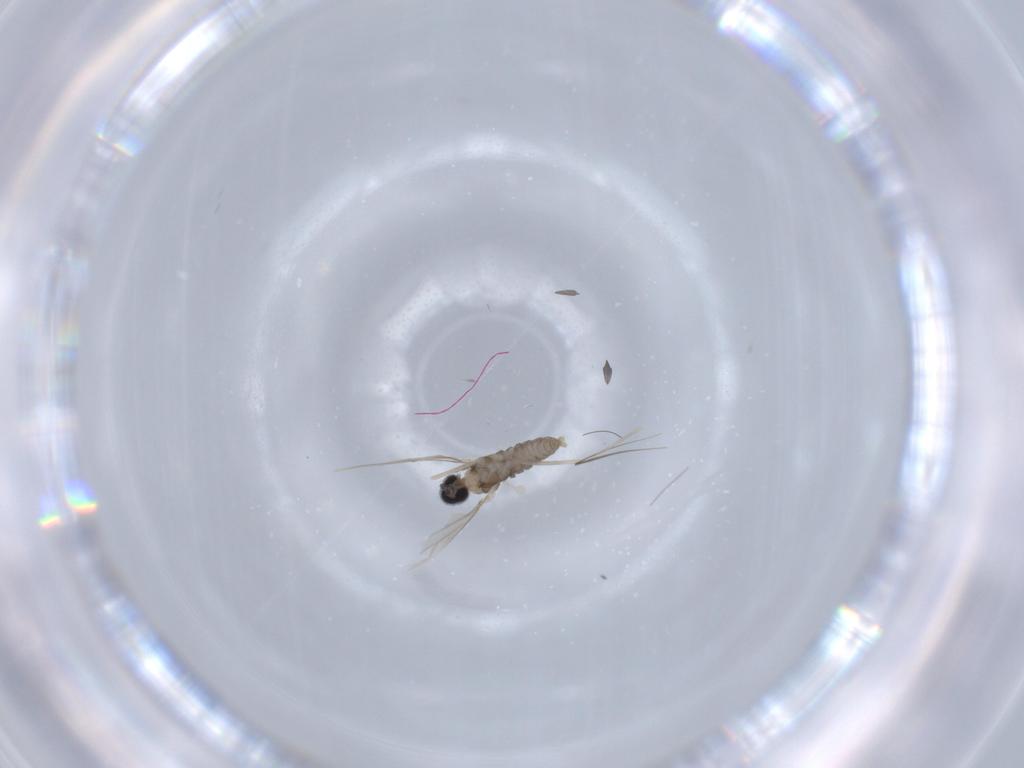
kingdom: Animalia
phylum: Arthropoda
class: Insecta
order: Diptera
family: Cecidomyiidae
